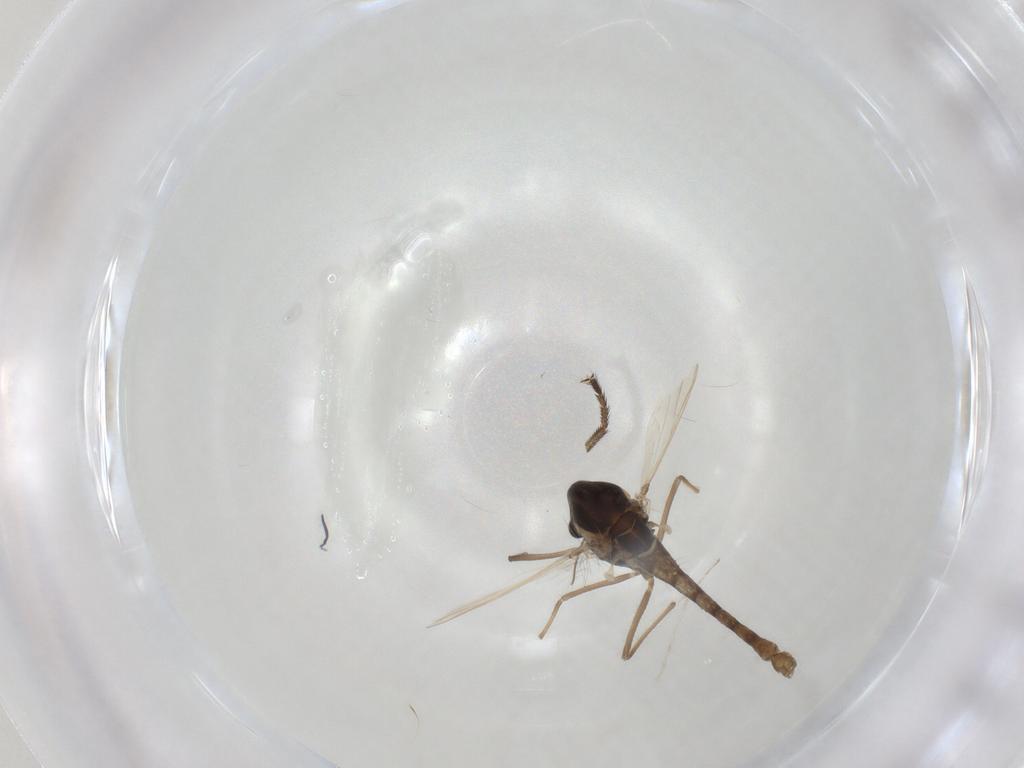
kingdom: Animalia
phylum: Arthropoda
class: Insecta
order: Diptera
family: Chironomidae
